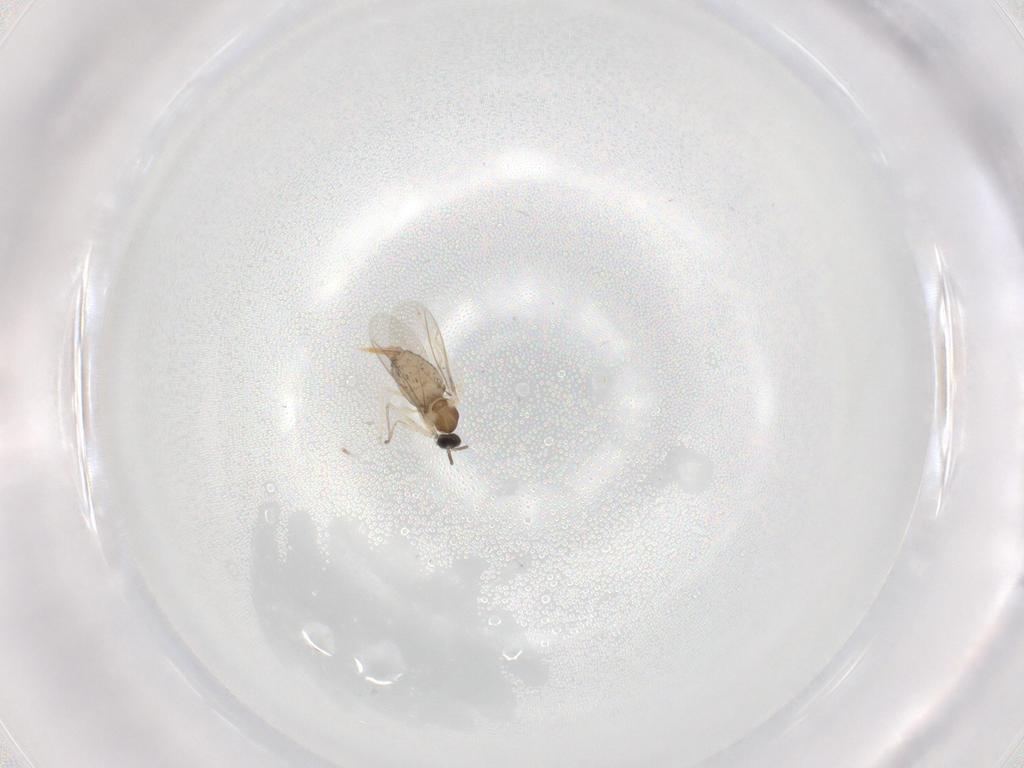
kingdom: Animalia
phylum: Arthropoda
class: Insecta
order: Diptera
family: Cecidomyiidae
